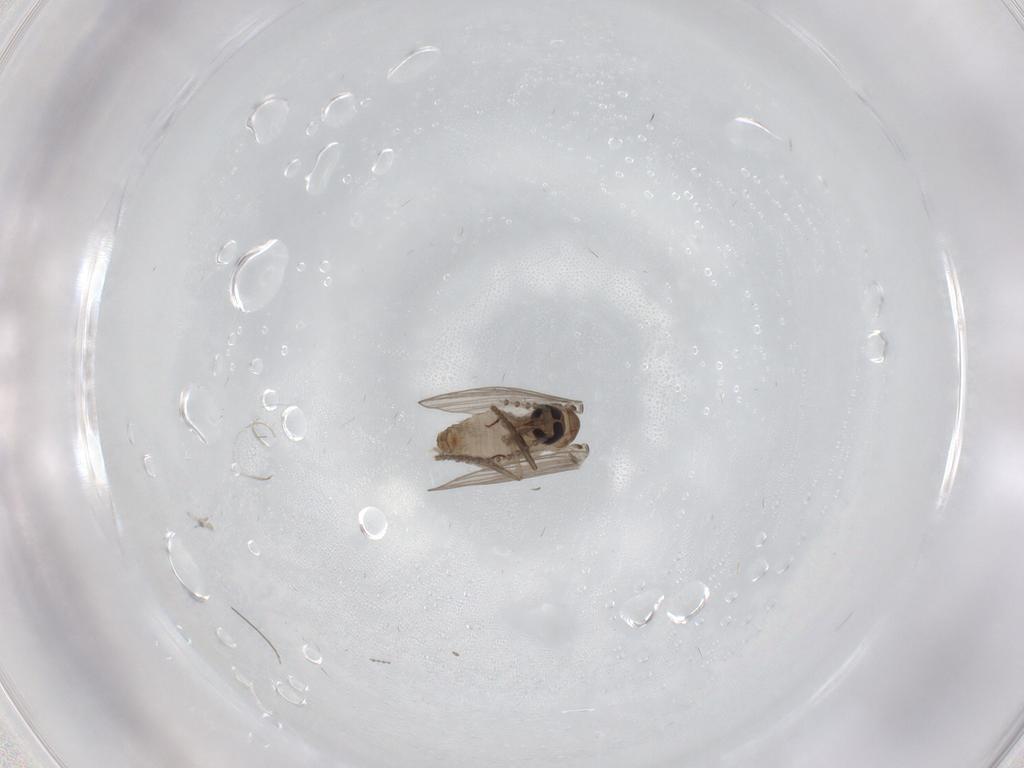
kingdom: Animalia
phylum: Arthropoda
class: Insecta
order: Diptera
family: Cecidomyiidae
